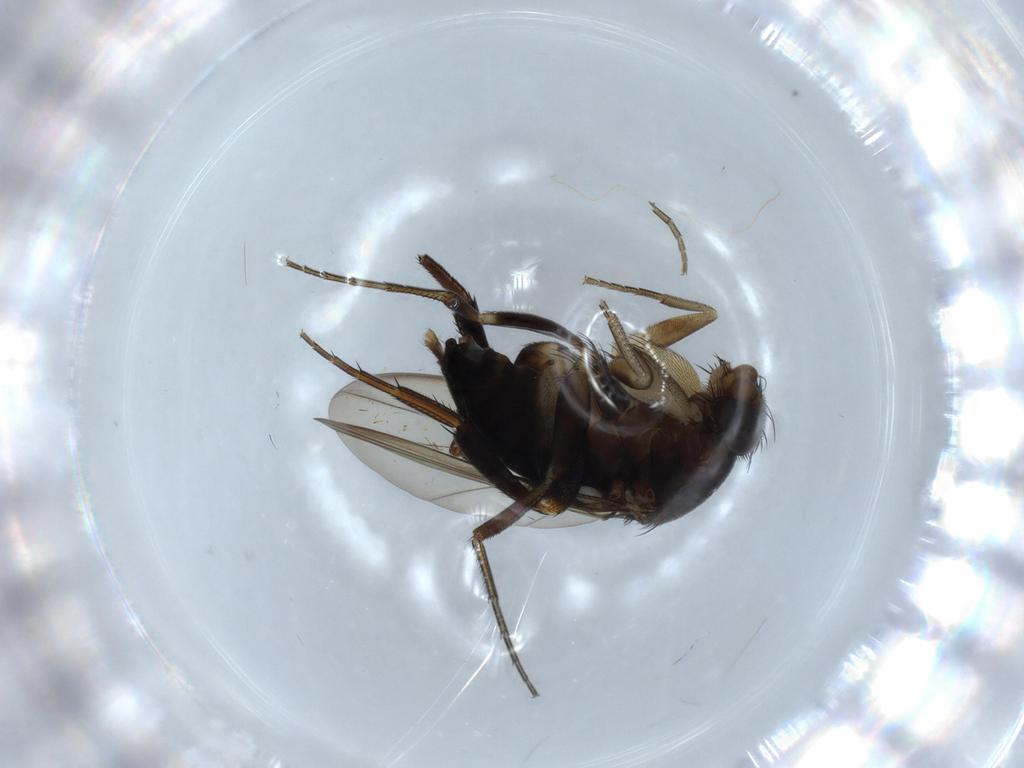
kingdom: Animalia
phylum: Arthropoda
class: Insecta
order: Diptera
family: Phoridae
